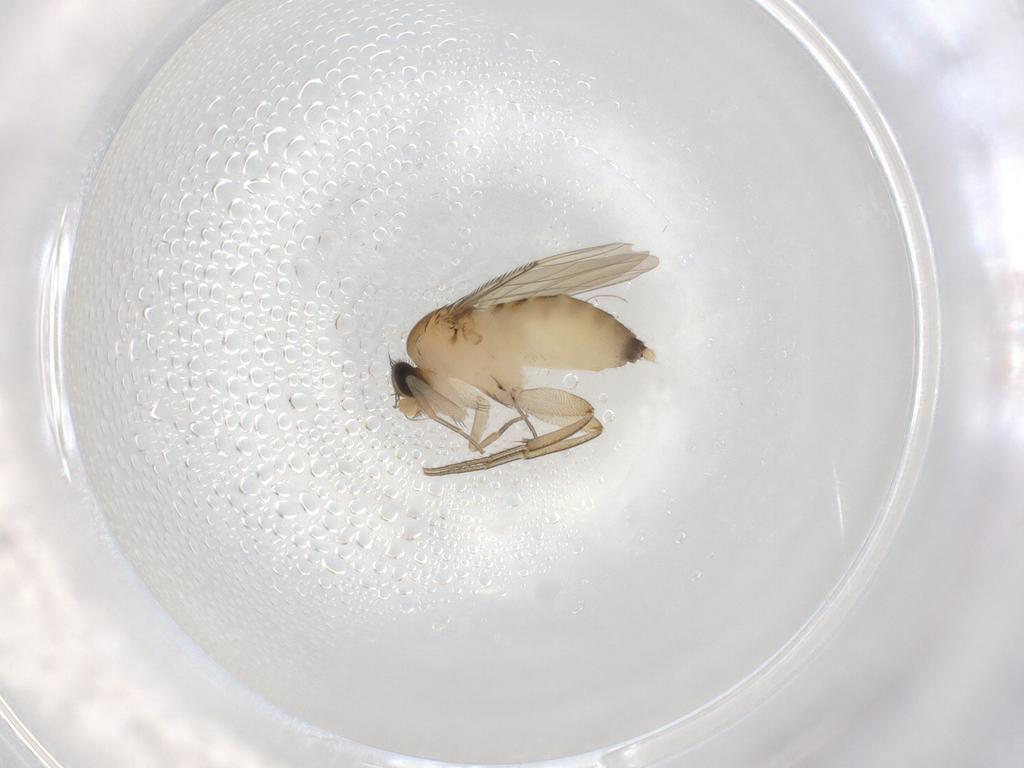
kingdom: Animalia
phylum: Arthropoda
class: Insecta
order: Diptera
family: Phoridae
